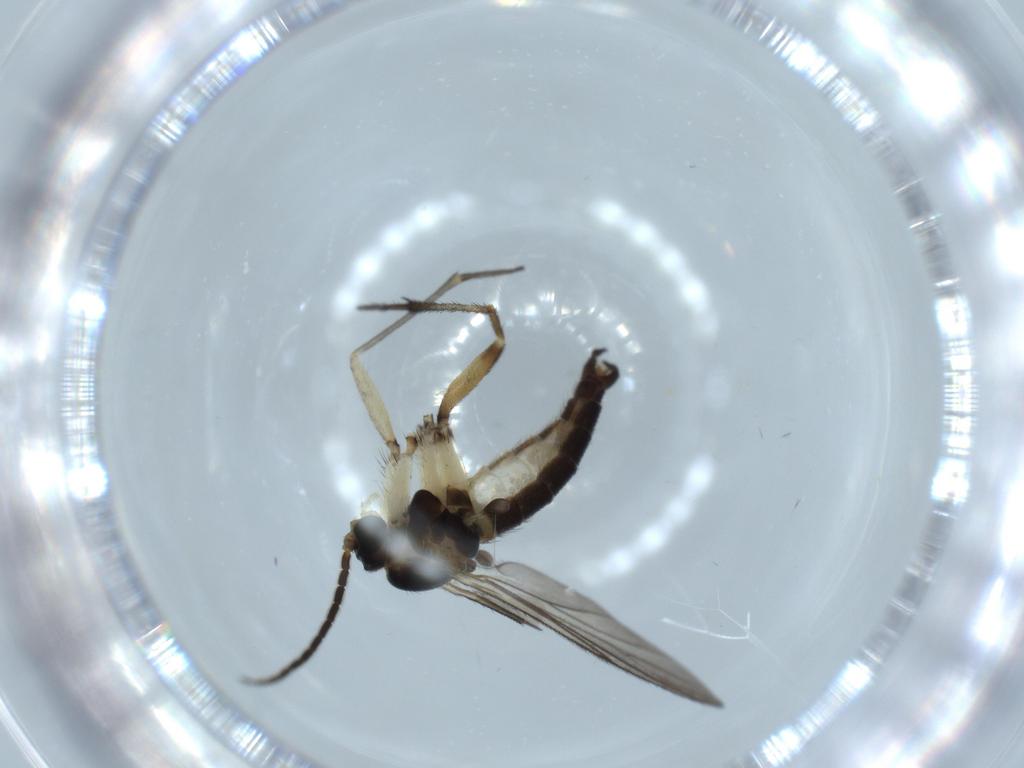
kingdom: Animalia
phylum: Arthropoda
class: Insecta
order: Diptera
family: Sciaridae
